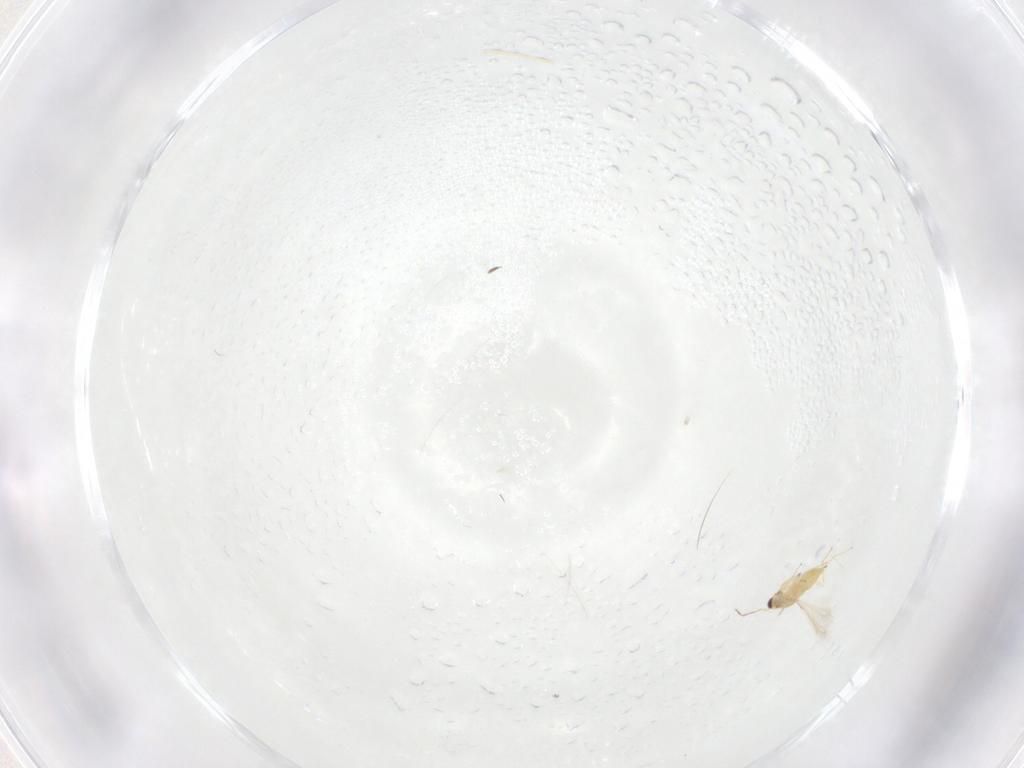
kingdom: Animalia
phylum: Arthropoda
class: Insecta
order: Hymenoptera
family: Mymaridae
